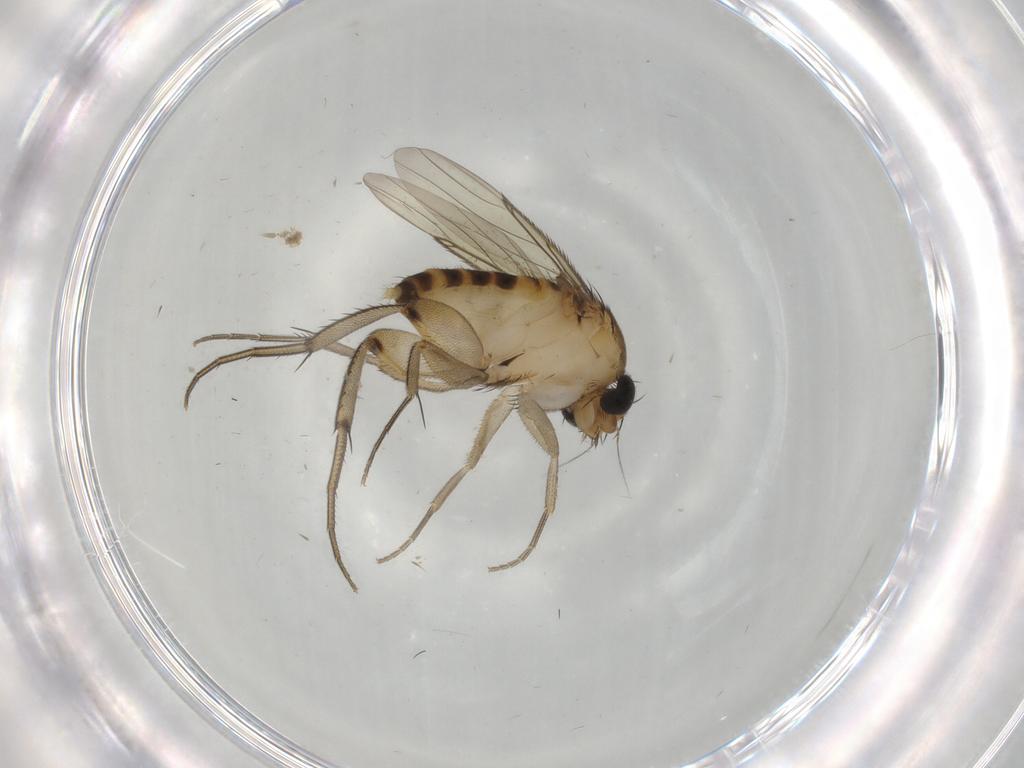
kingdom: Animalia
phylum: Arthropoda
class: Insecta
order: Diptera
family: Phoridae
